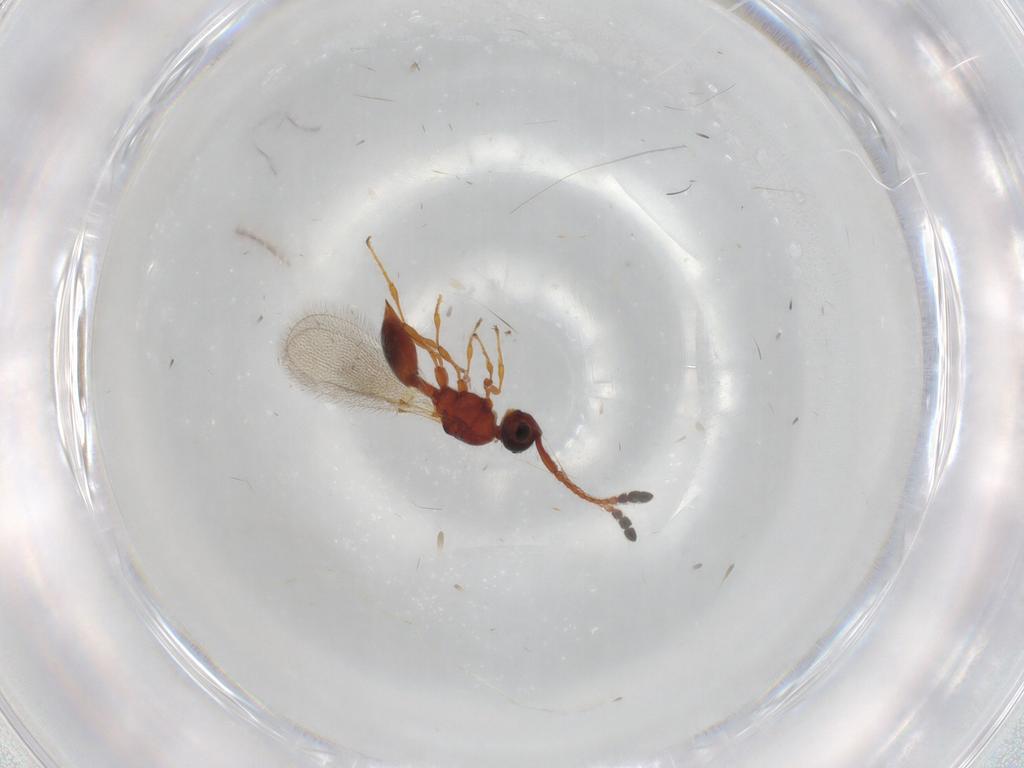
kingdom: Animalia
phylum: Arthropoda
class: Insecta
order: Hymenoptera
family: Diapriidae
